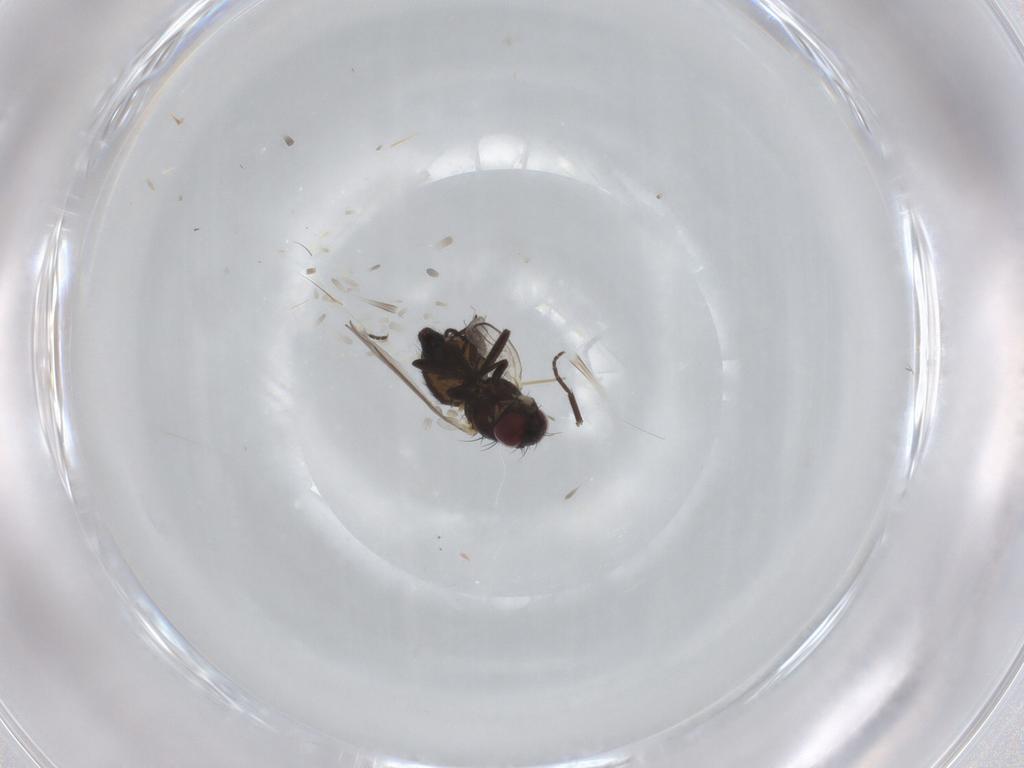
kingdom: Animalia
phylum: Arthropoda
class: Insecta
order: Diptera
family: Agromyzidae
